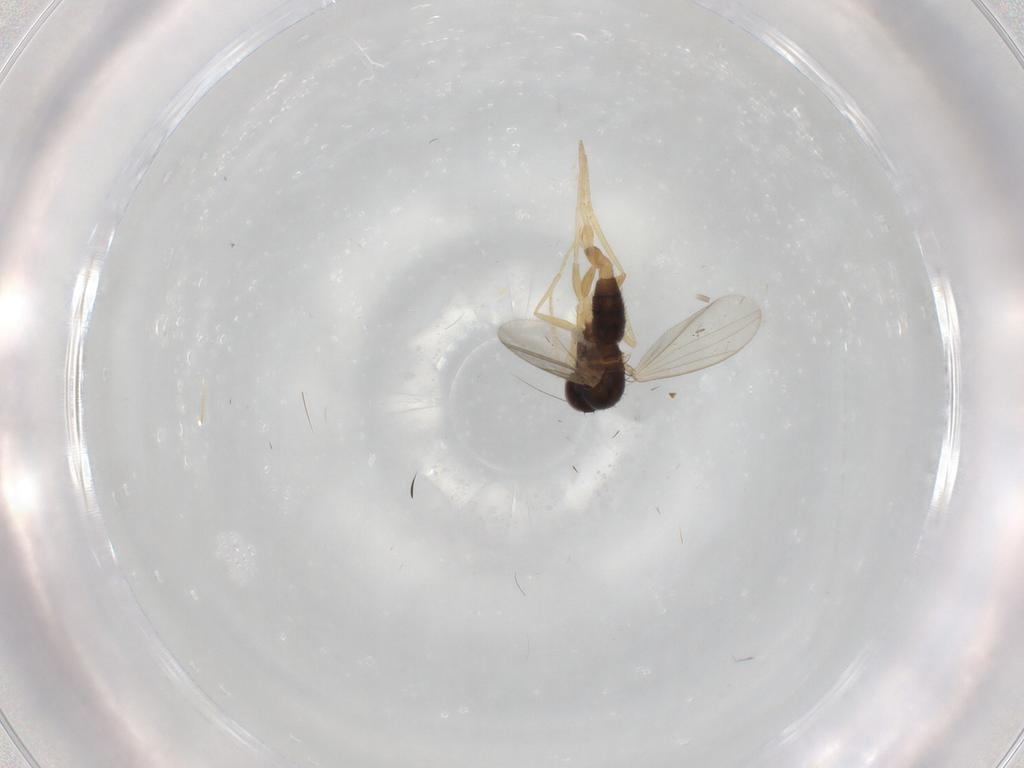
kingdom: Animalia
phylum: Arthropoda
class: Insecta
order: Diptera
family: Dolichopodidae
